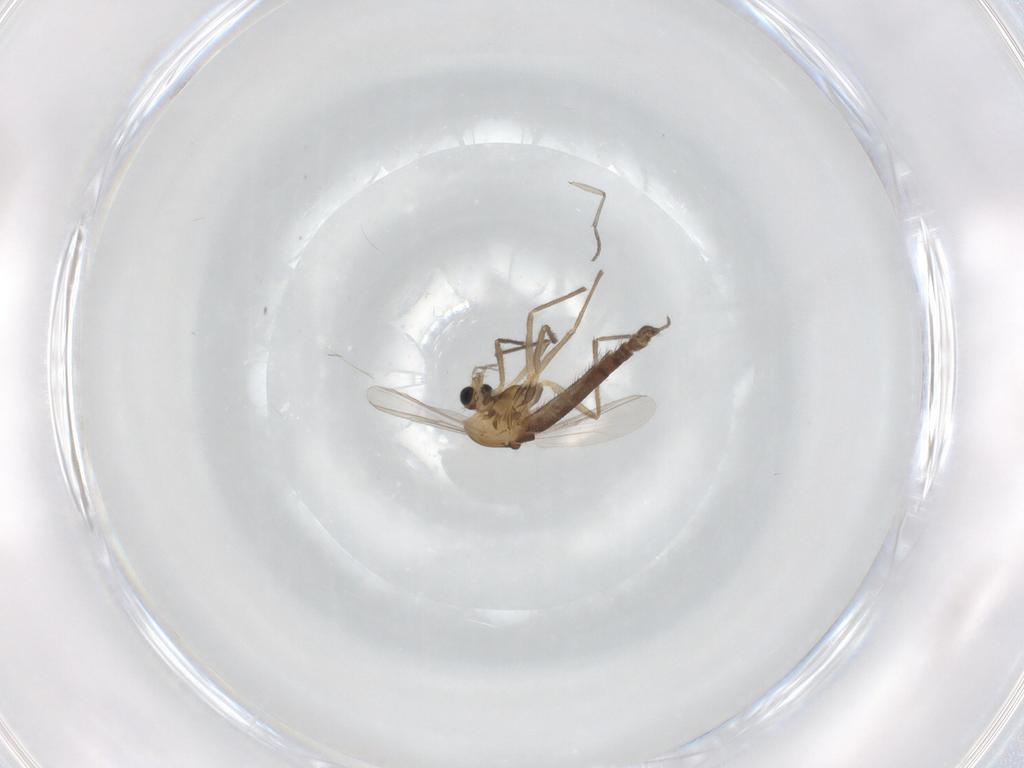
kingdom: Animalia
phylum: Arthropoda
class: Insecta
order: Diptera
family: Chironomidae
